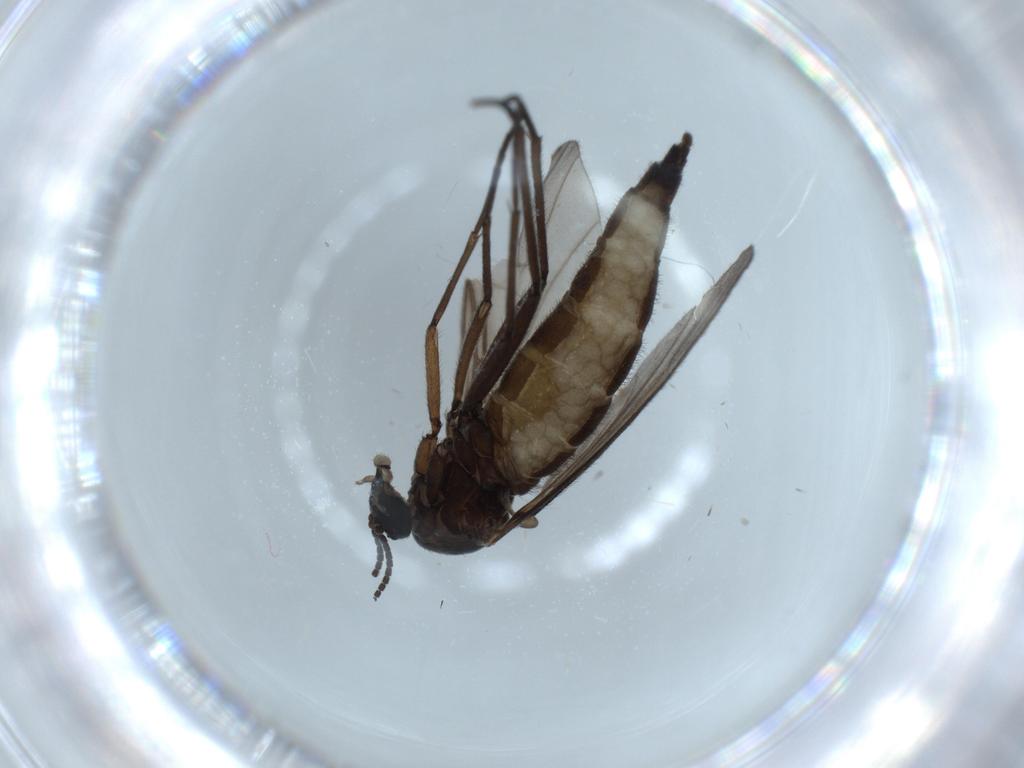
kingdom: Animalia
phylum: Arthropoda
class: Insecta
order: Diptera
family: Sciaridae
